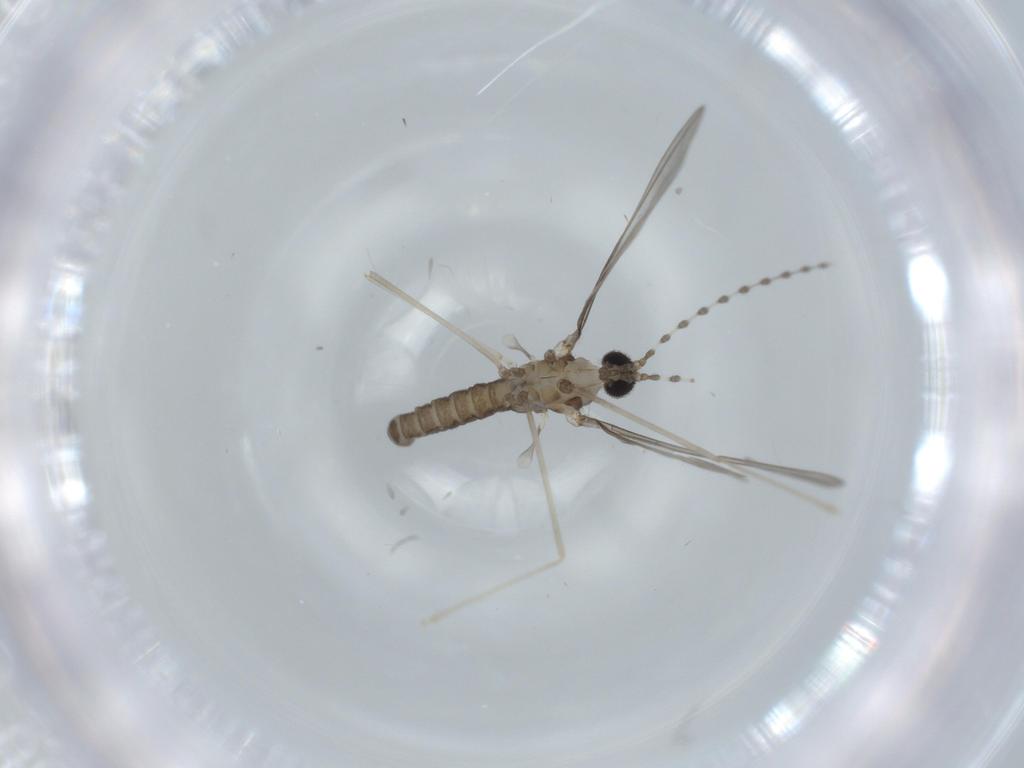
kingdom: Animalia
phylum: Arthropoda
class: Insecta
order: Diptera
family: Cecidomyiidae
